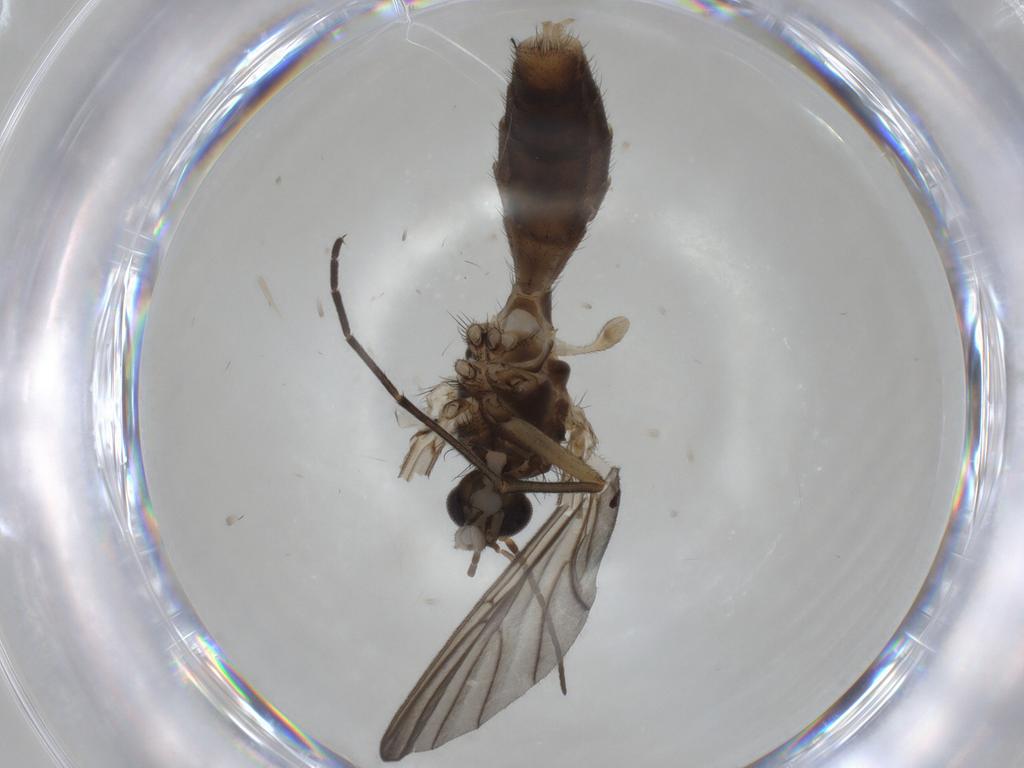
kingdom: Animalia
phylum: Arthropoda
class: Insecta
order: Diptera
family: Mycetophilidae
